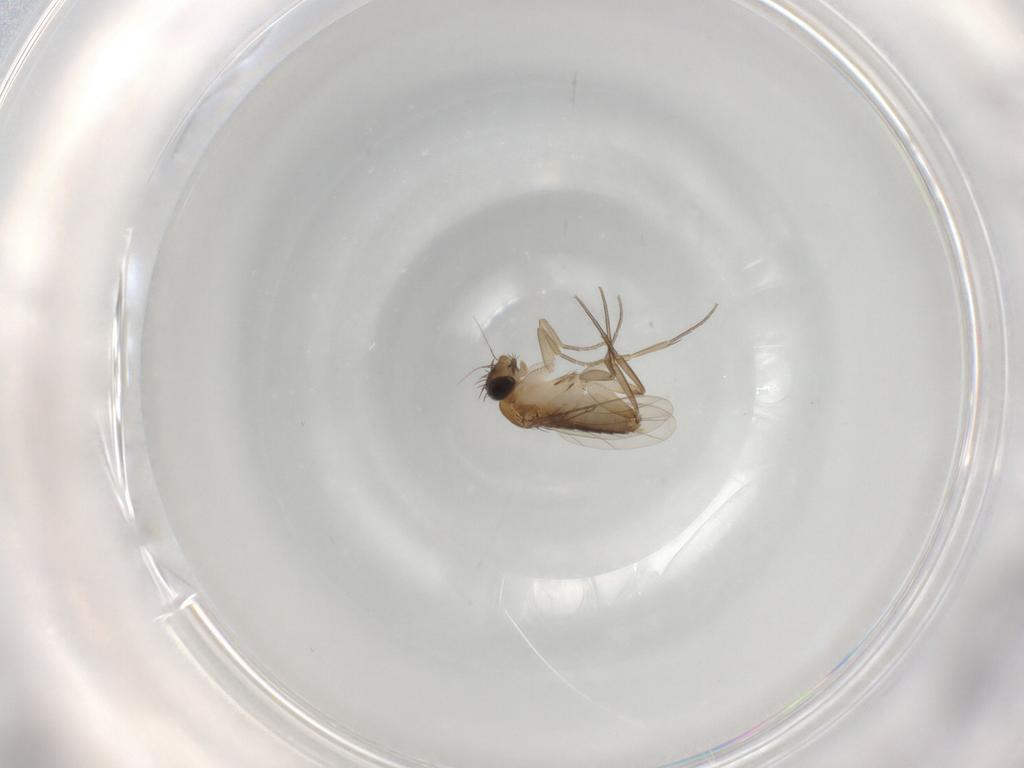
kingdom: Animalia
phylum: Arthropoda
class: Insecta
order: Diptera
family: Phoridae
